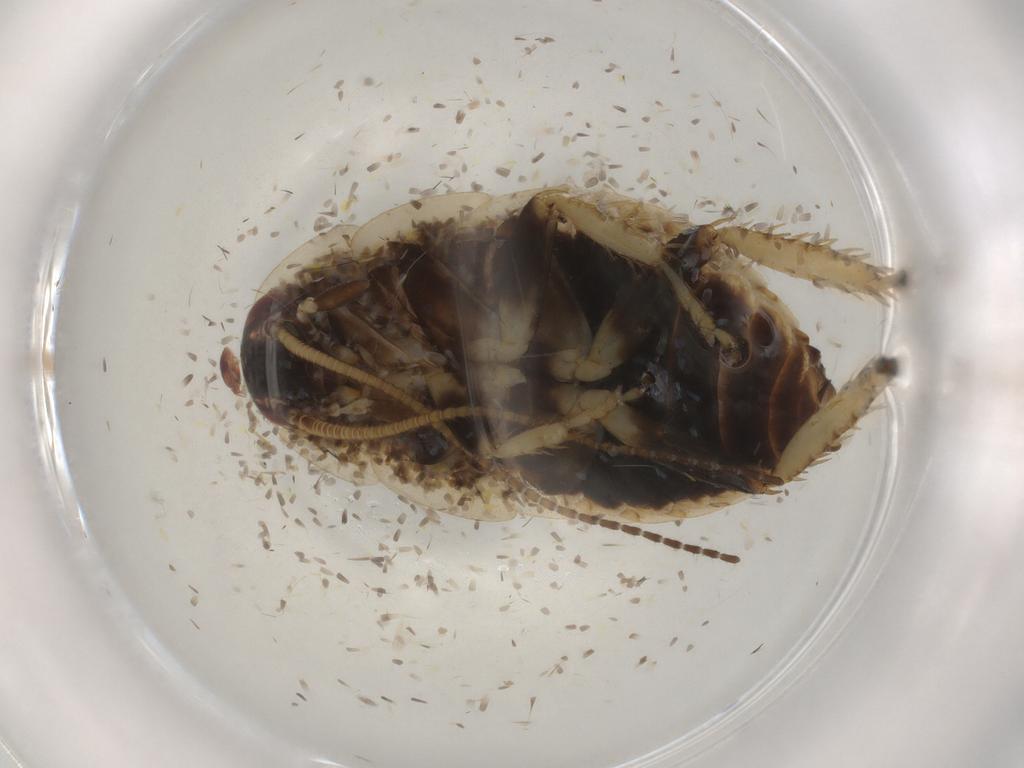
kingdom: Animalia
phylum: Arthropoda
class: Insecta
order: Blattodea
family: Ectobiidae
